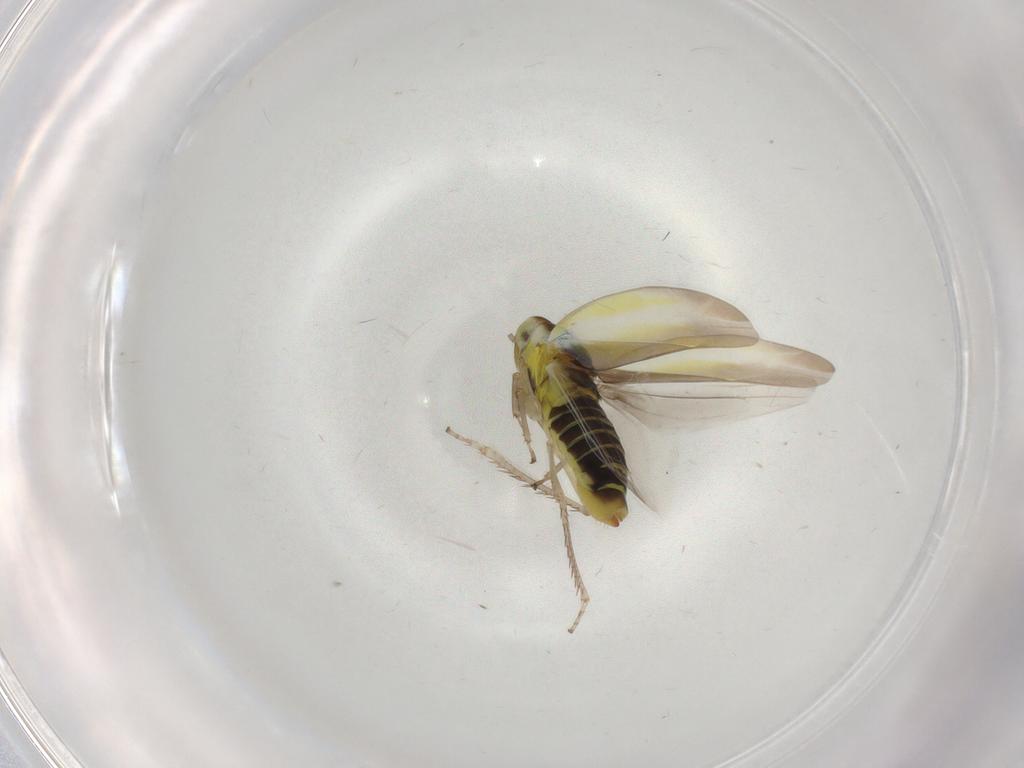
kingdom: Animalia
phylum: Arthropoda
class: Insecta
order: Hemiptera
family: Cicadellidae
